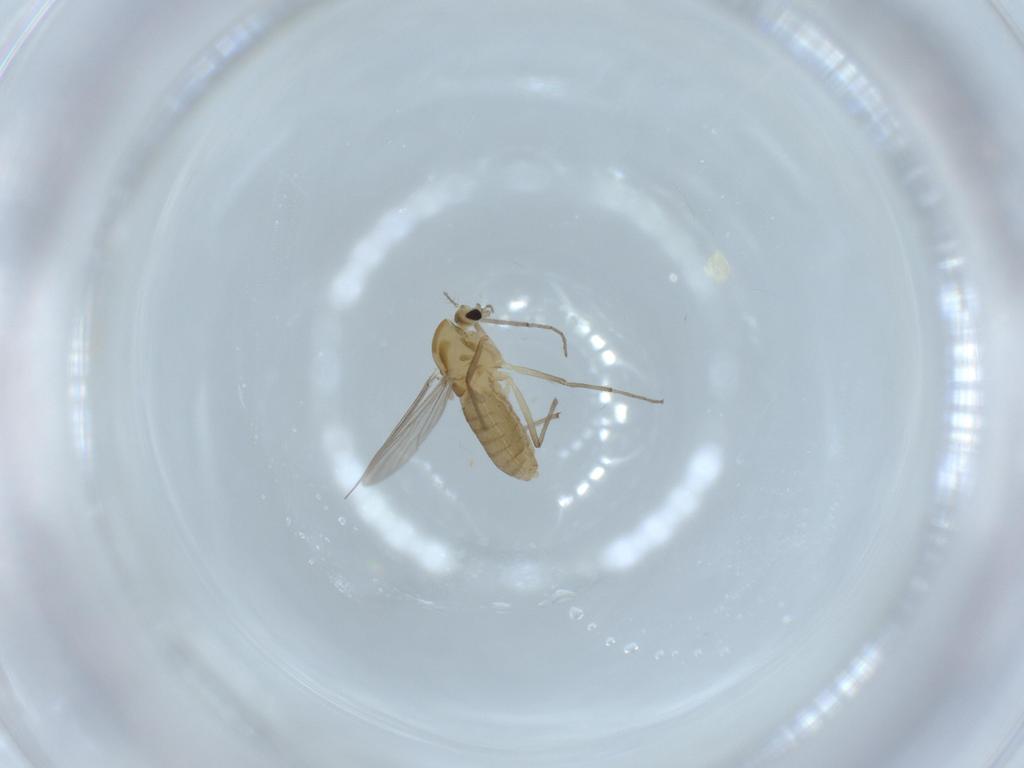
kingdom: Animalia
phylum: Arthropoda
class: Insecta
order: Diptera
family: Chironomidae
